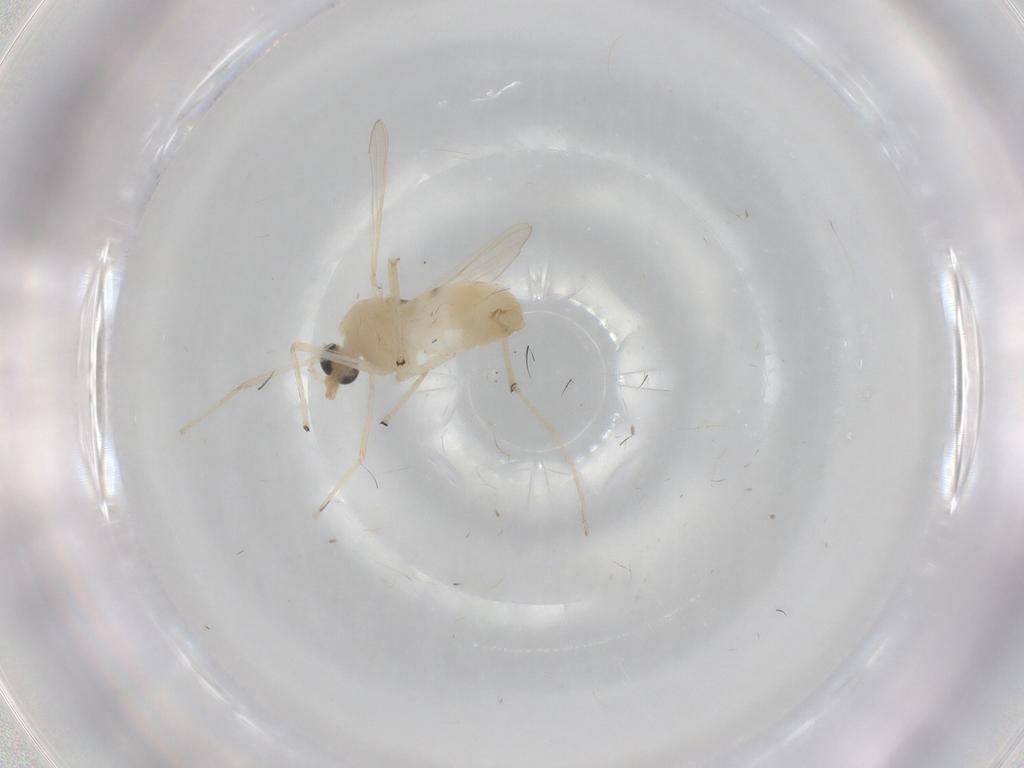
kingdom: Animalia
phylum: Arthropoda
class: Insecta
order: Diptera
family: Chironomidae
